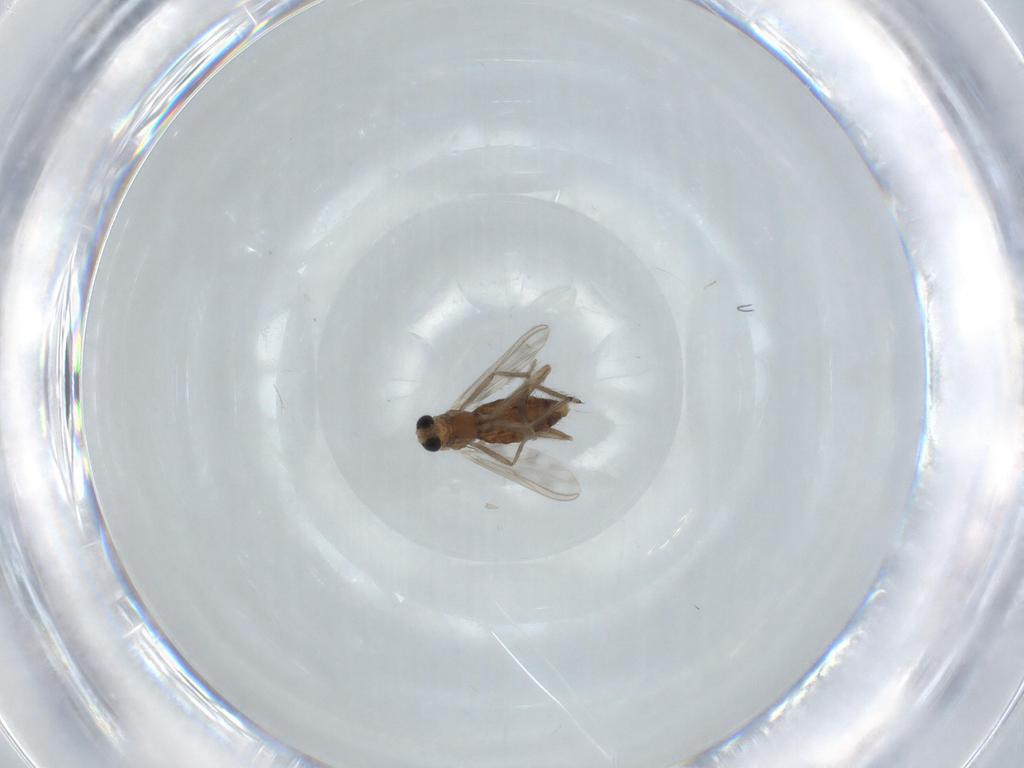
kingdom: Animalia
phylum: Arthropoda
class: Insecta
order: Diptera
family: Chironomidae
